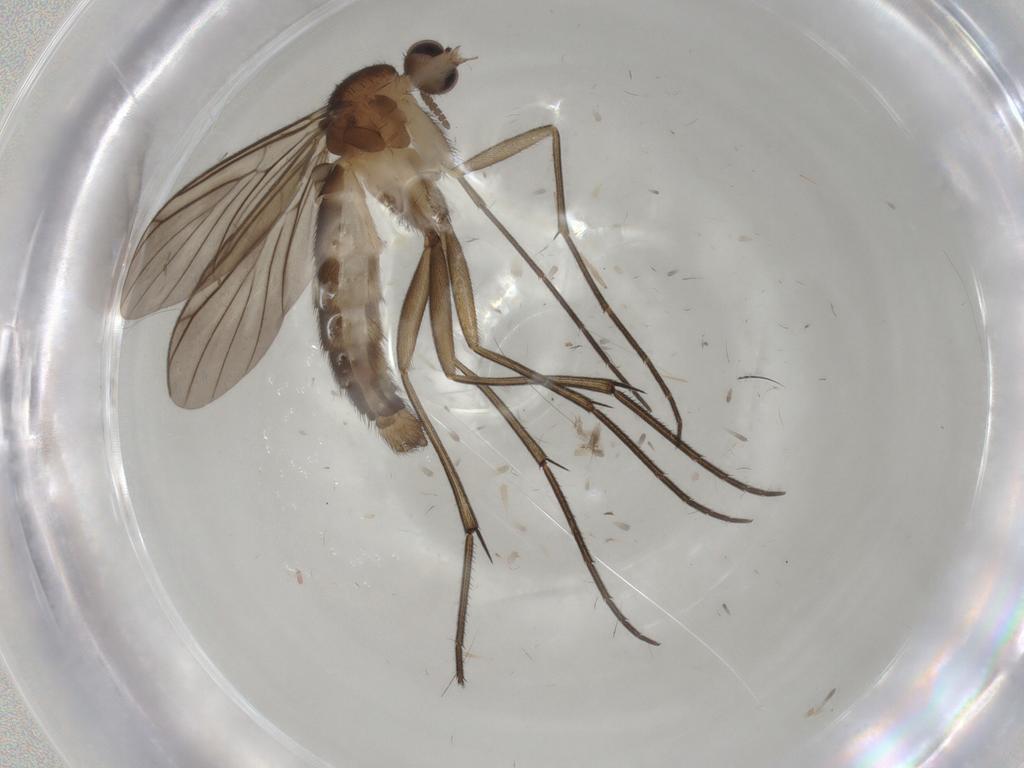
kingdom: Animalia
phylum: Arthropoda
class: Insecta
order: Diptera
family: Mycetophilidae
